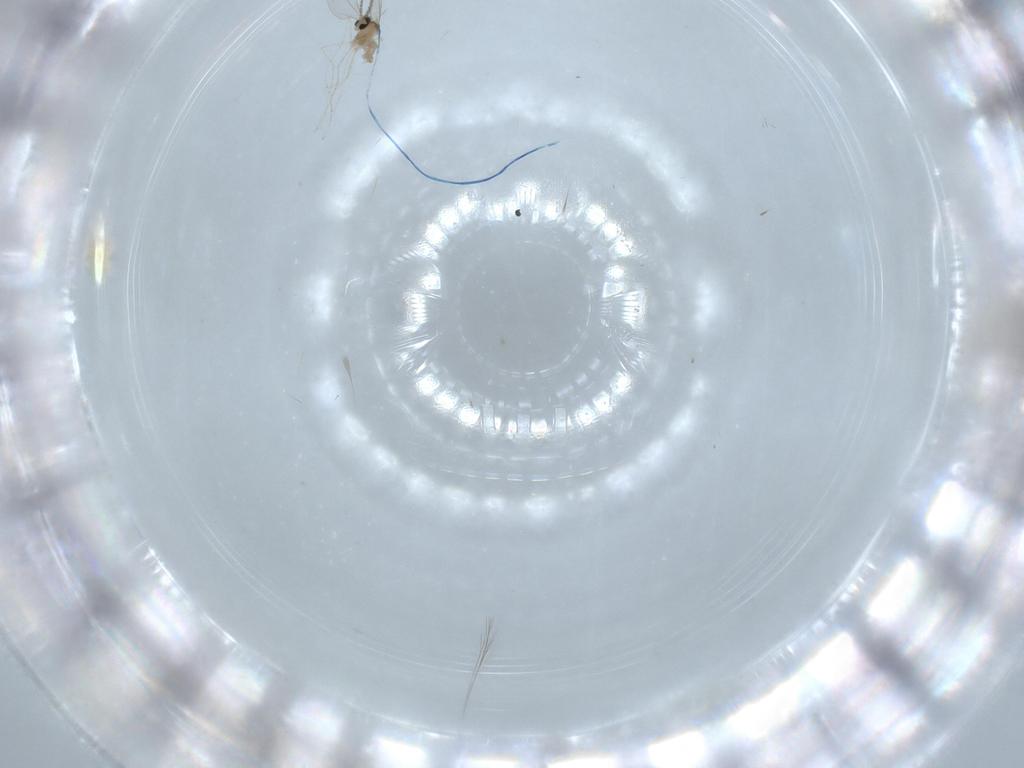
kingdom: Animalia
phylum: Arthropoda
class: Insecta
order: Diptera
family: Cecidomyiidae
